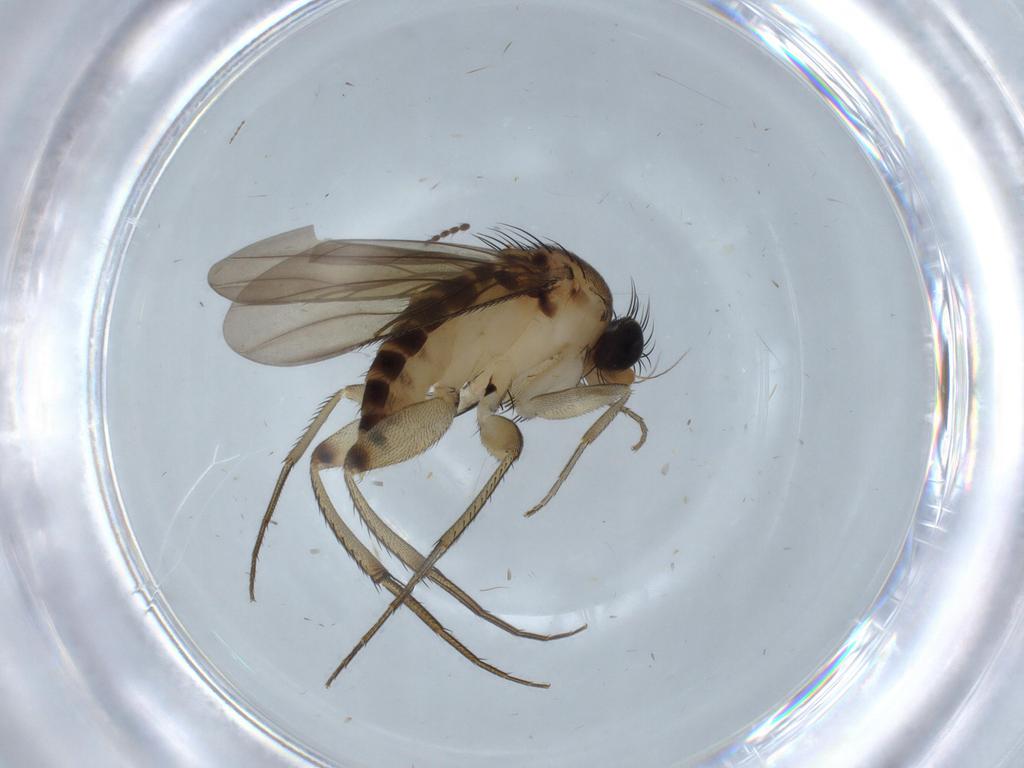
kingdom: Animalia
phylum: Arthropoda
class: Insecta
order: Diptera
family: Phoridae
